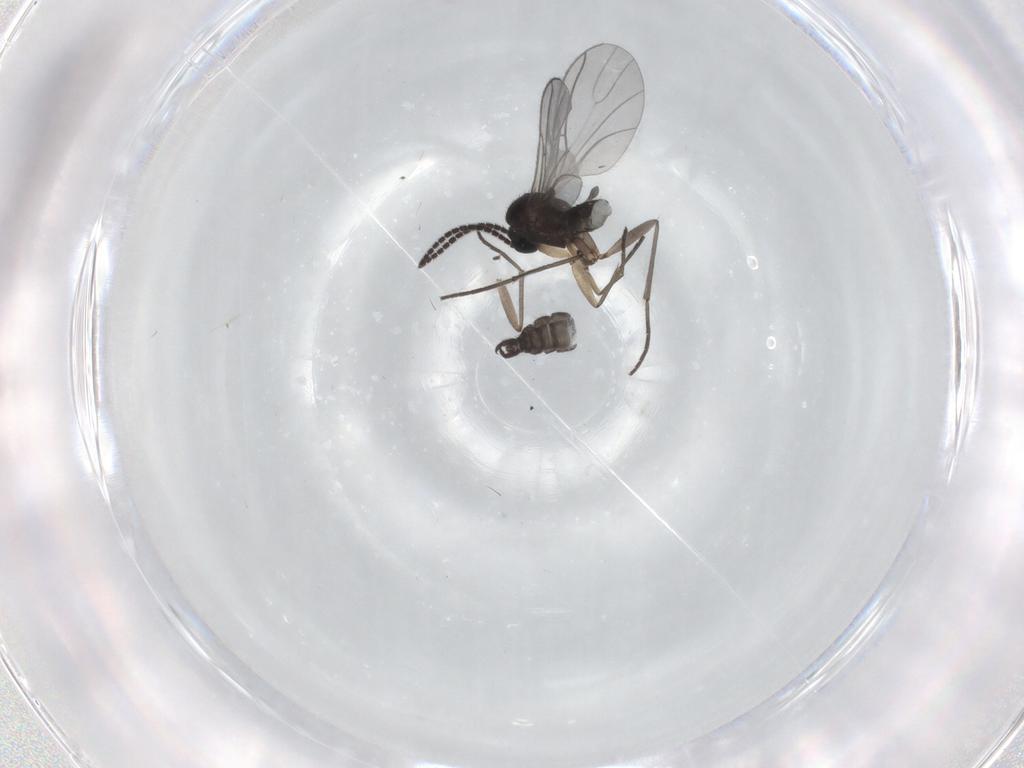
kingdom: Animalia
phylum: Arthropoda
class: Insecta
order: Diptera
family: Sciaridae
